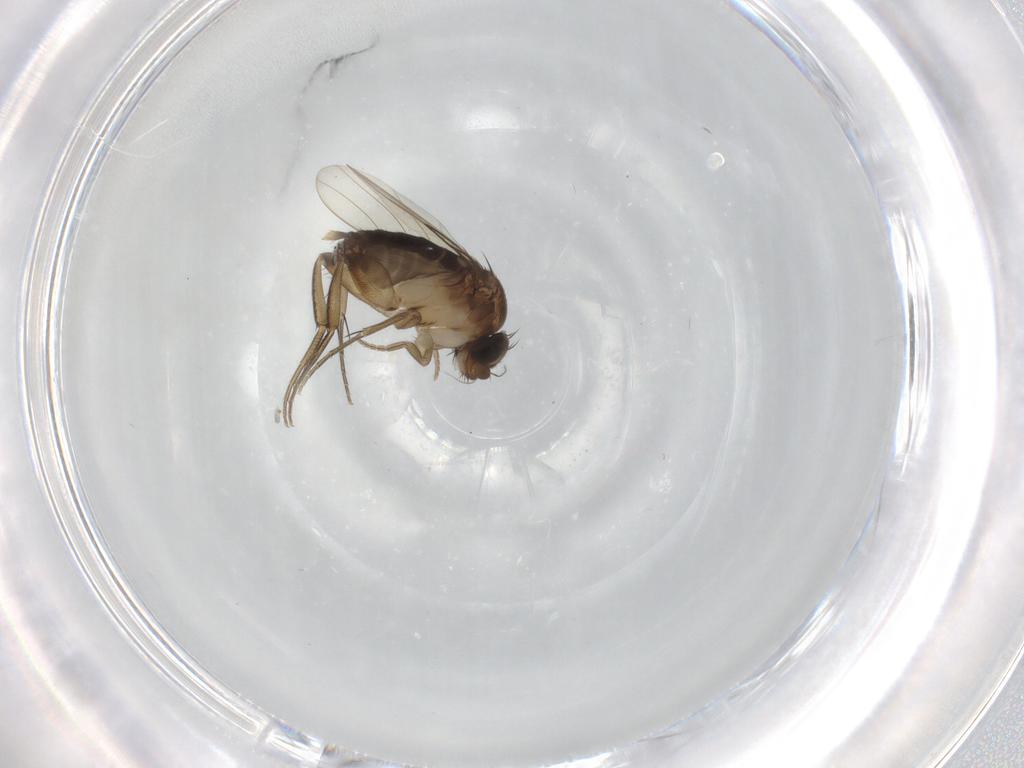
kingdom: Animalia
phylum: Arthropoda
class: Insecta
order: Diptera
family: Phoridae
